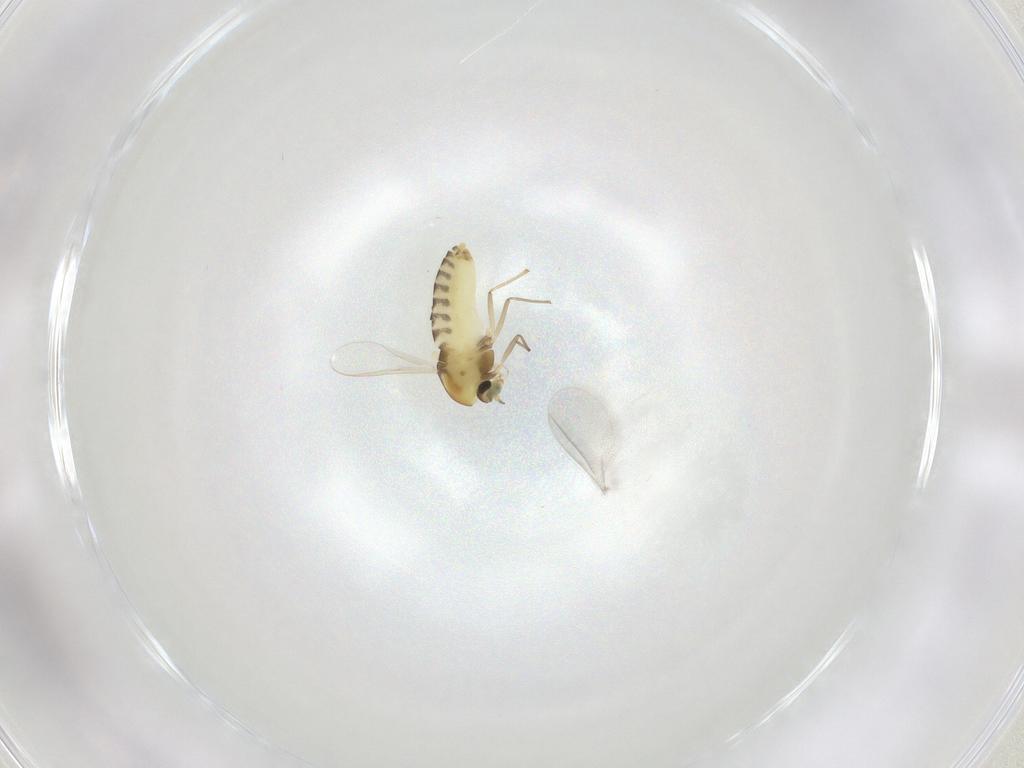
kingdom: Animalia
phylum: Arthropoda
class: Insecta
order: Diptera
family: Chironomidae
